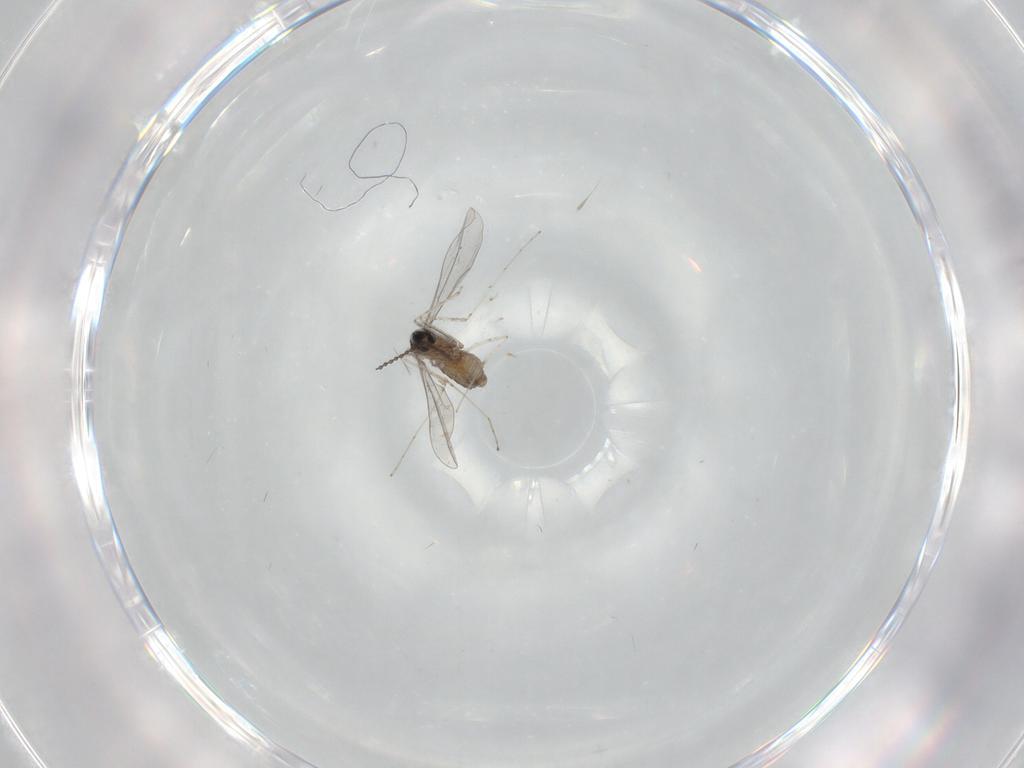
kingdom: Animalia
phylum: Arthropoda
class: Insecta
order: Diptera
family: Cecidomyiidae
